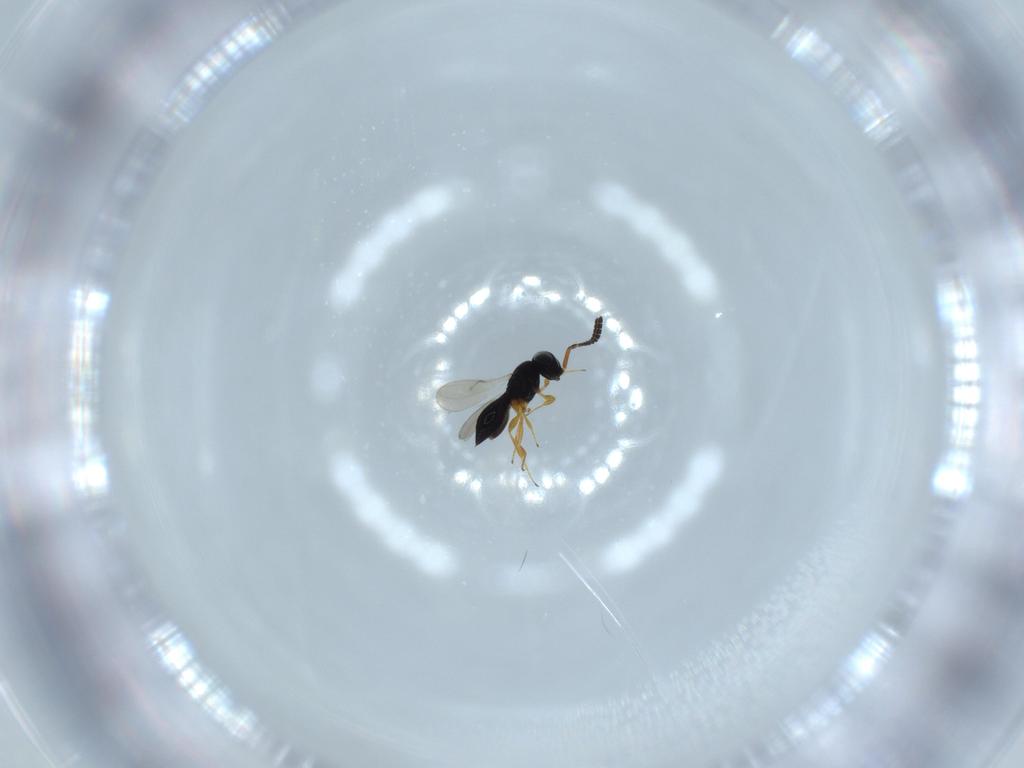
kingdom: Animalia
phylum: Arthropoda
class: Insecta
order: Hymenoptera
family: Scelionidae
